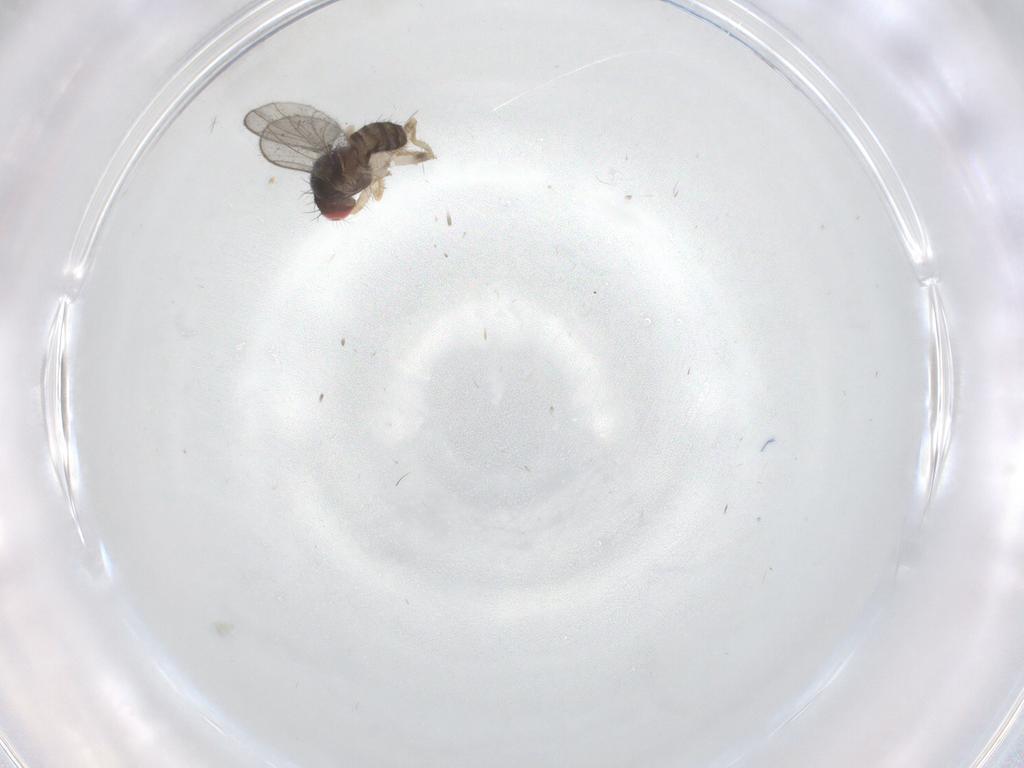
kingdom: Animalia
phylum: Arthropoda
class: Insecta
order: Diptera
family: Drosophilidae
